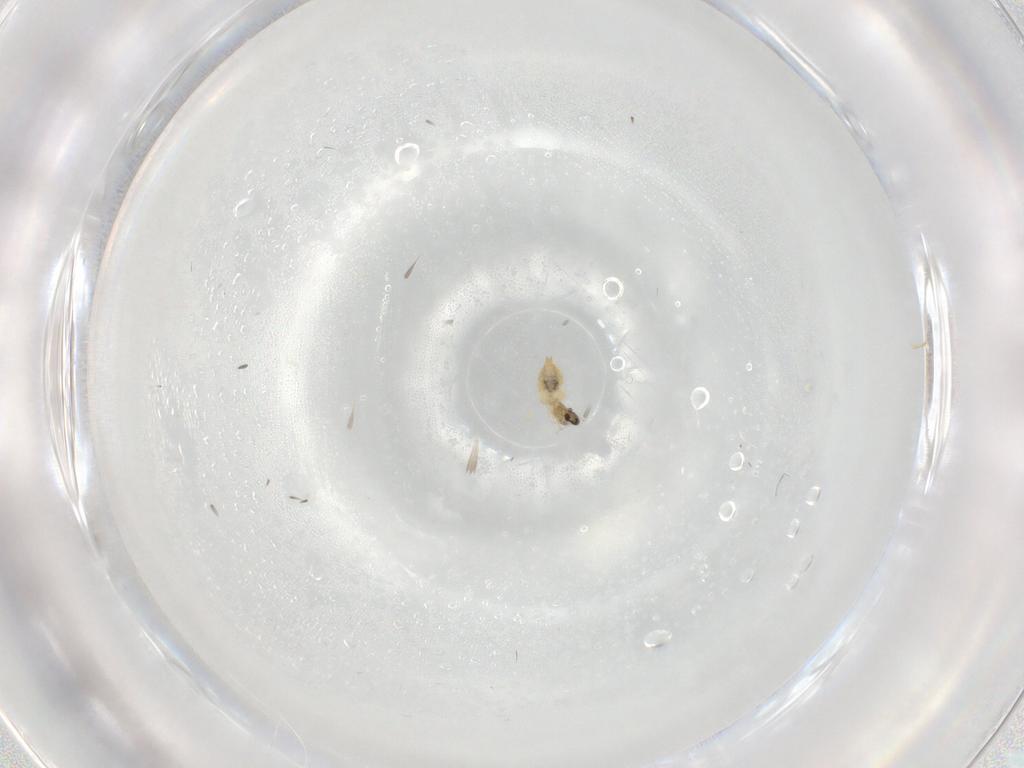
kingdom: Animalia
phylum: Arthropoda
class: Insecta
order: Diptera
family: Cecidomyiidae
